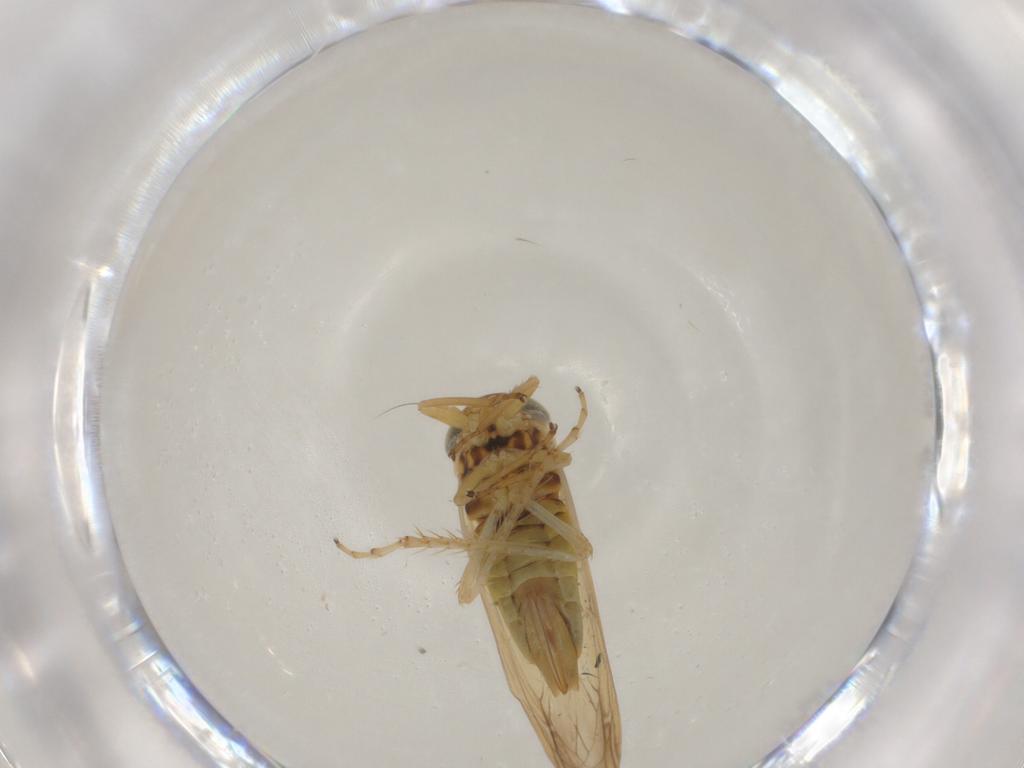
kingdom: Animalia
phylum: Arthropoda
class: Insecta
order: Hemiptera
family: Cicadellidae
